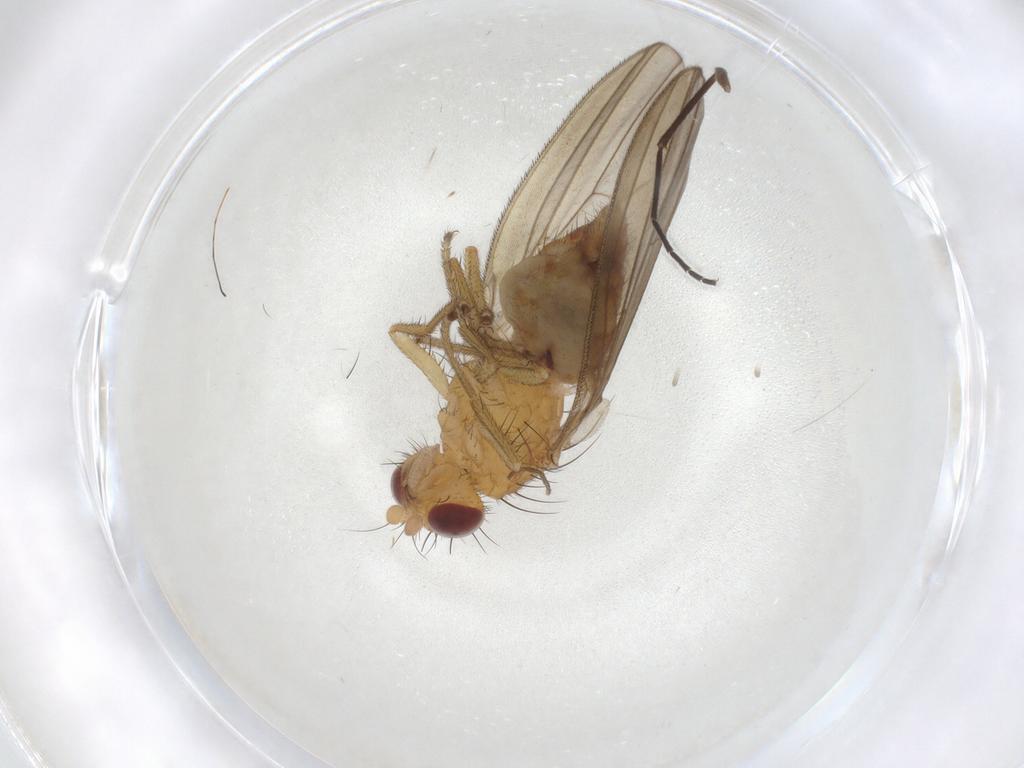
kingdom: Animalia
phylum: Arthropoda
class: Insecta
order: Diptera
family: Natalimyzidae
